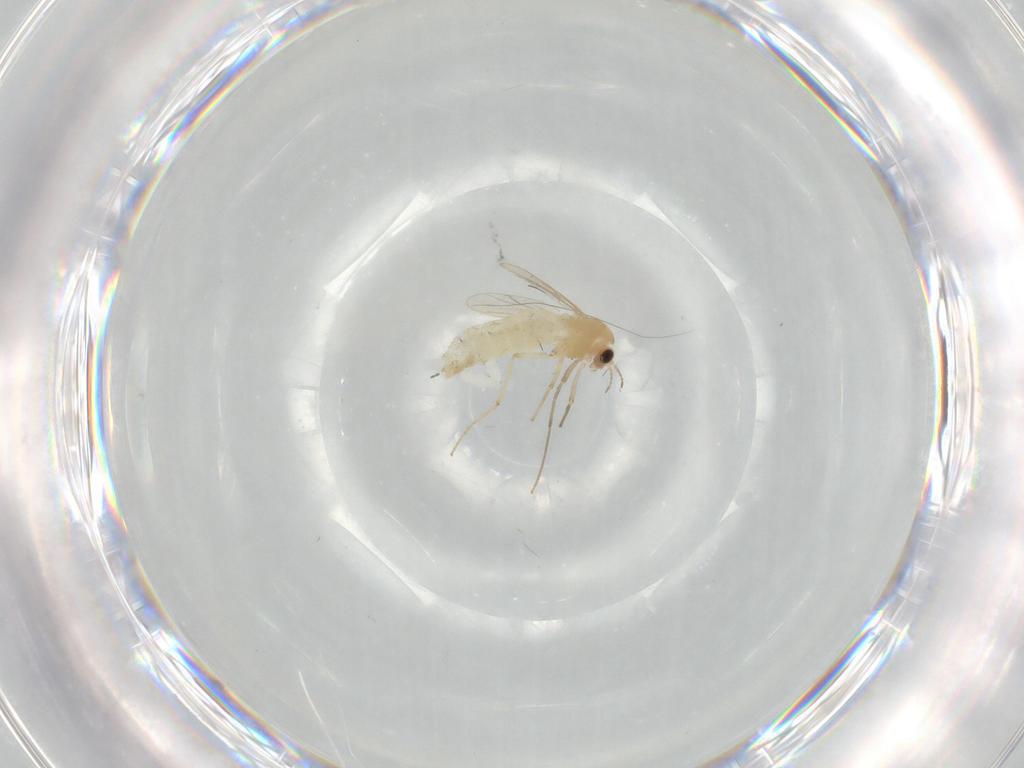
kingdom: Animalia
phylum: Arthropoda
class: Insecta
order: Diptera
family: Chironomidae
